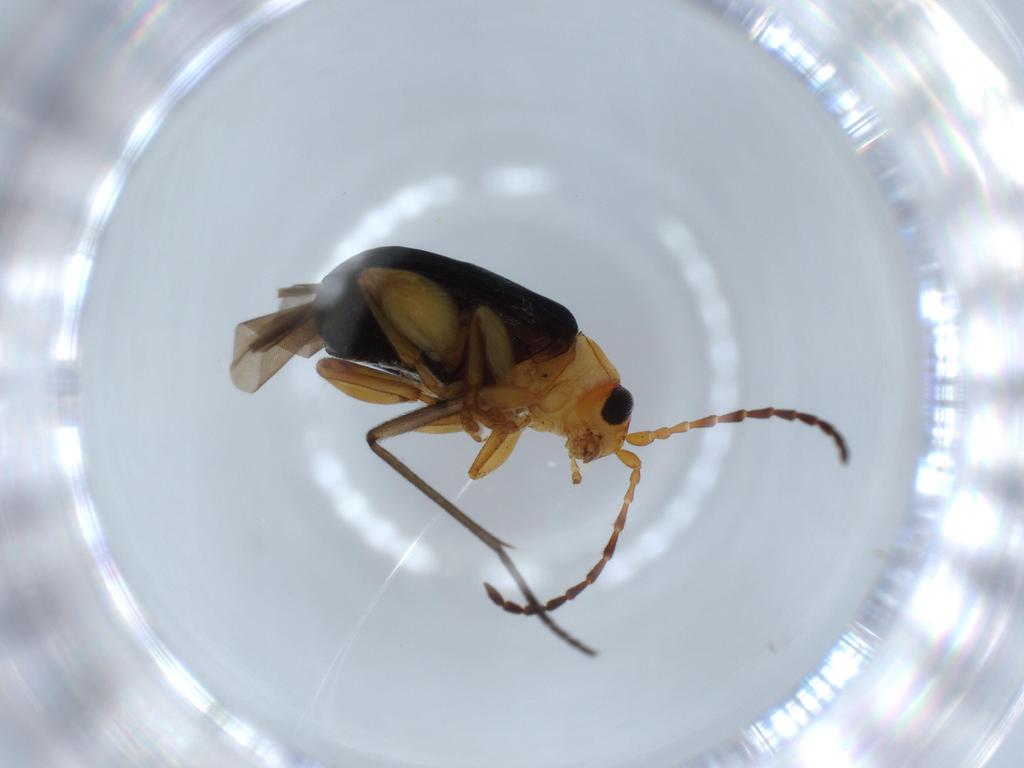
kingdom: Animalia
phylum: Arthropoda
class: Insecta
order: Coleoptera
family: Chrysomelidae
